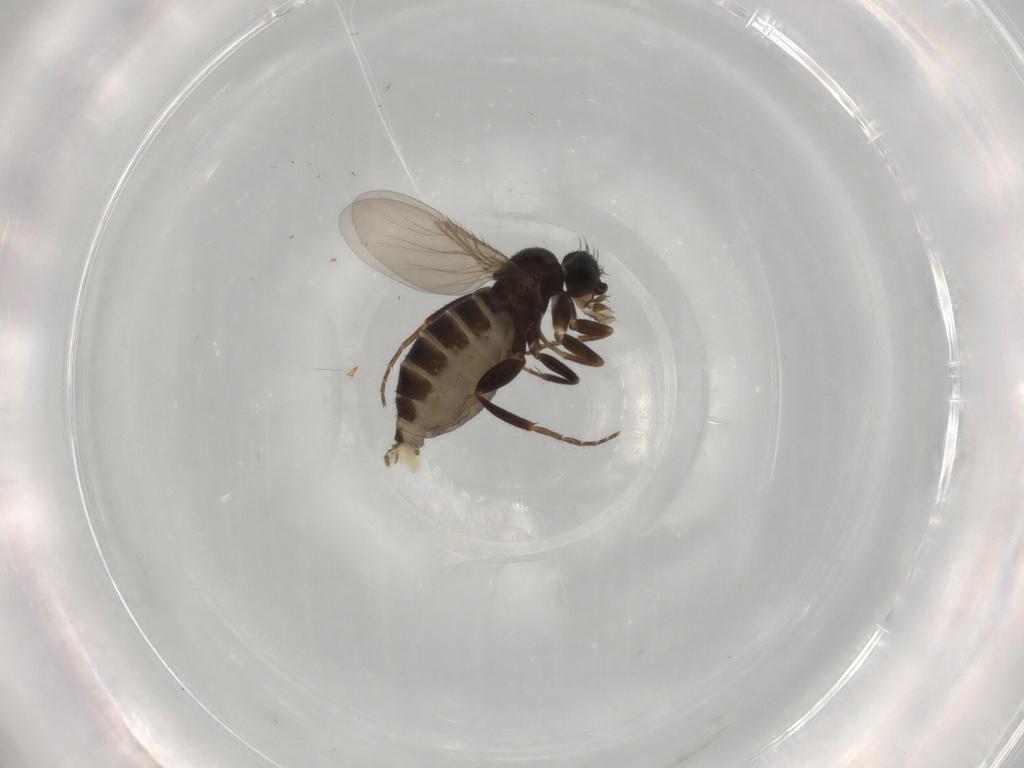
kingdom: Animalia
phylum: Arthropoda
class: Insecta
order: Diptera
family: Phoridae
